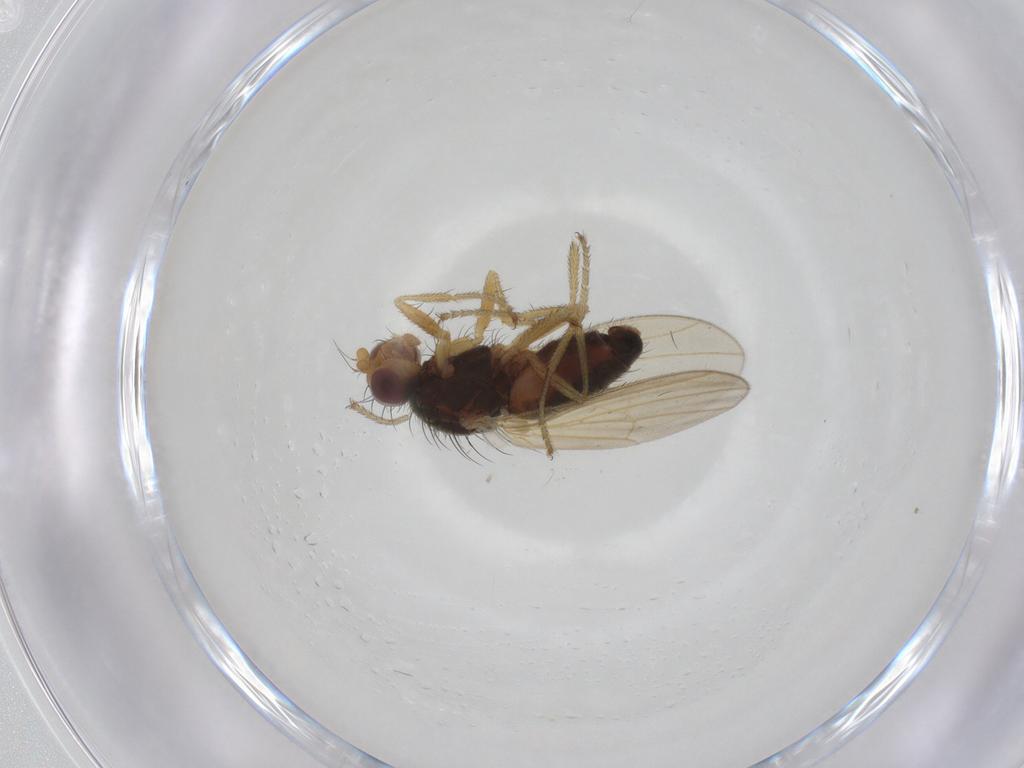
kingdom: Animalia
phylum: Arthropoda
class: Insecta
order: Diptera
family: Heleomyzidae
